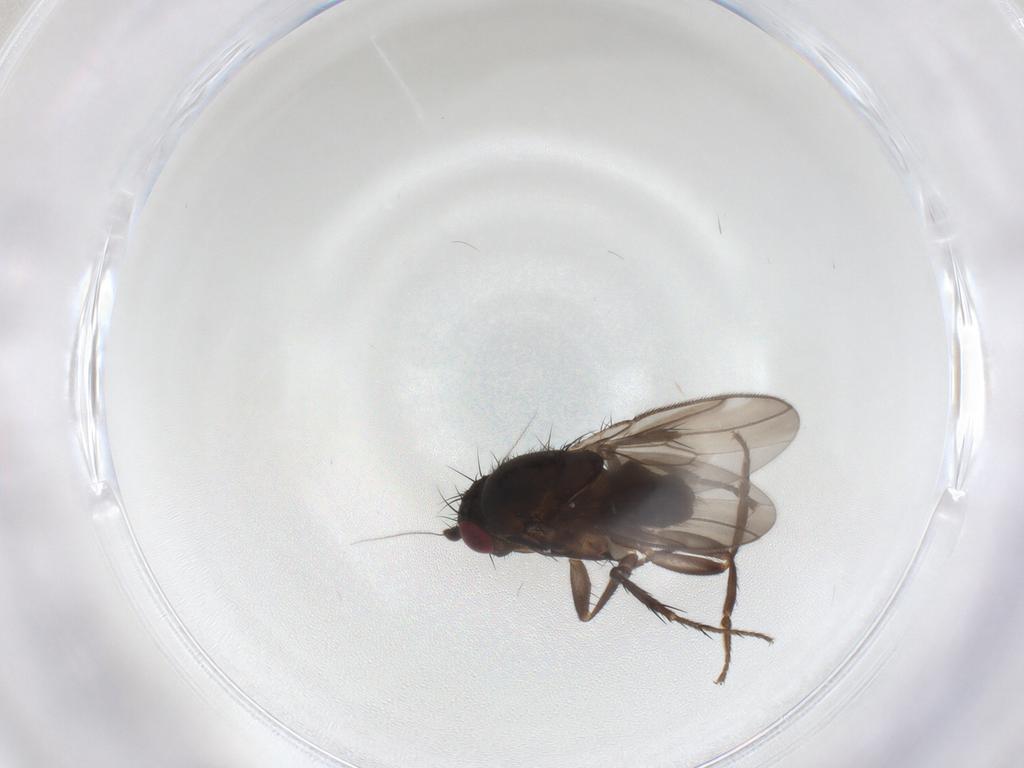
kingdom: Animalia
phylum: Arthropoda
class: Insecta
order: Diptera
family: Sphaeroceridae
